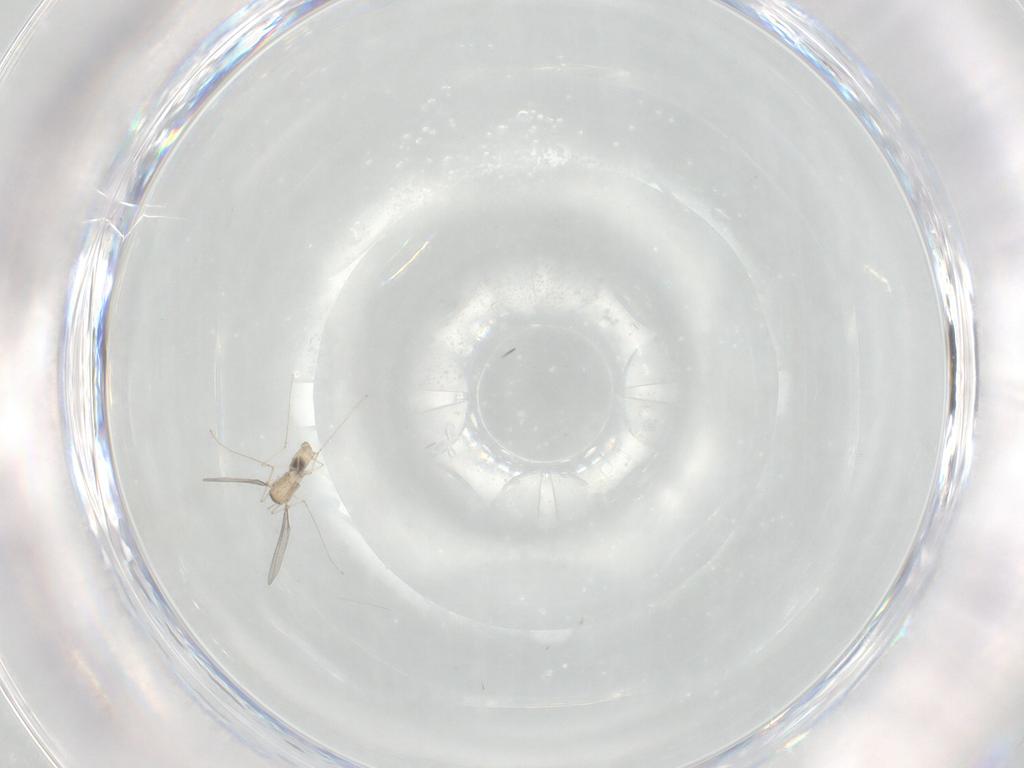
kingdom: Animalia
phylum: Arthropoda
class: Insecta
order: Diptera
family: Cecidomyiidae
